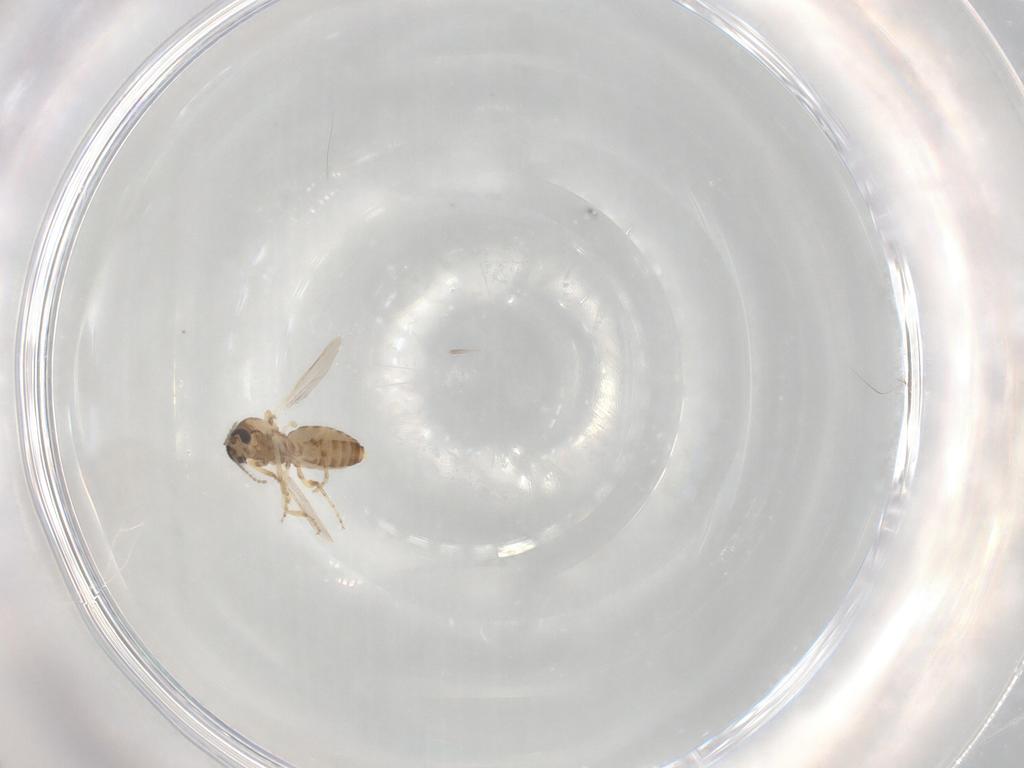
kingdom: Animalia
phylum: Arthropoda
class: Insecta
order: Diptera
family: Ceratopogonidae
